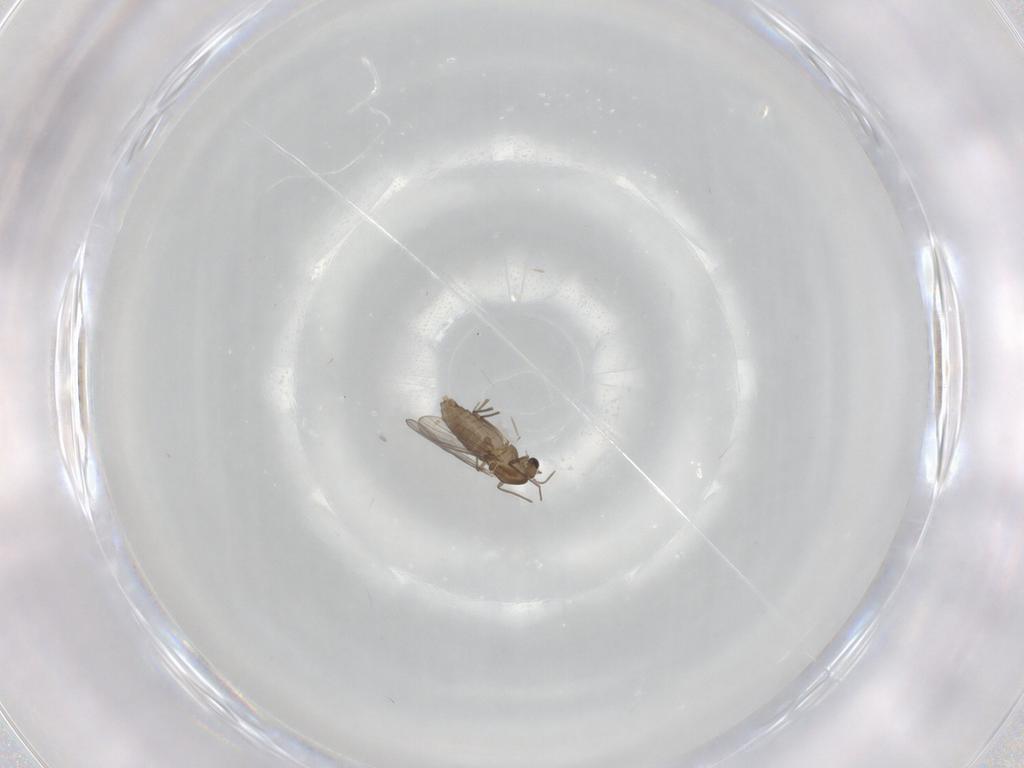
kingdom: Animalia
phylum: Arthropoda
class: Insecta
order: Diptera
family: Chironomidae
